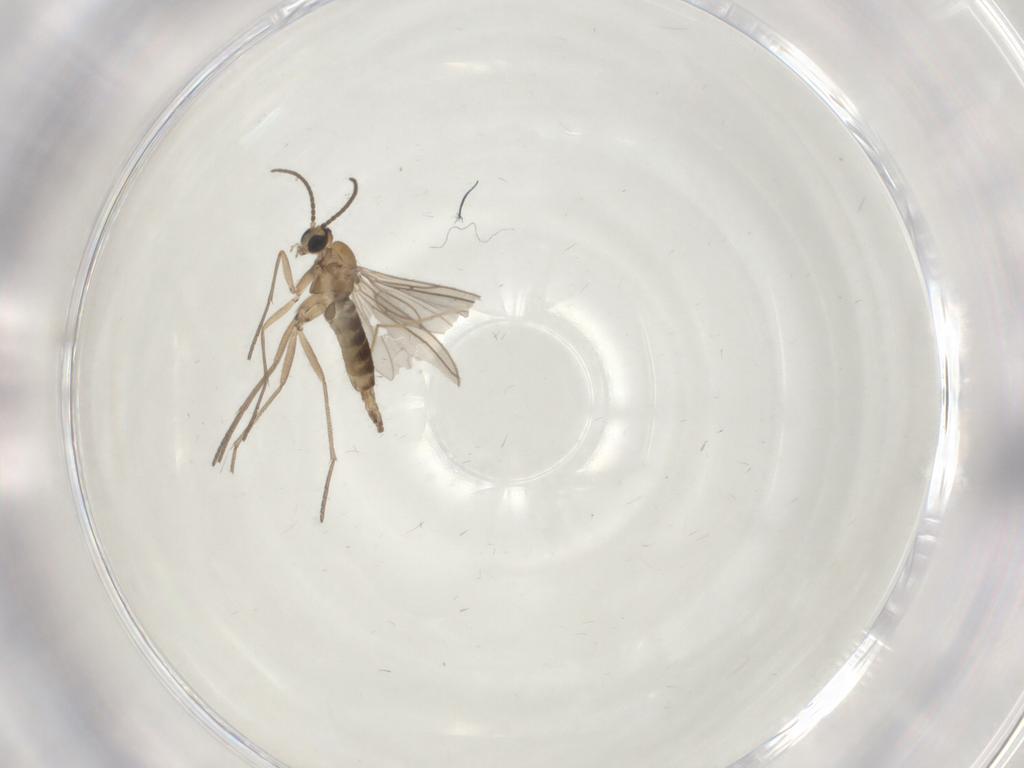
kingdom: Animalia
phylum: Arthropoda
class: Insecta
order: Diptera
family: Sciaridae
